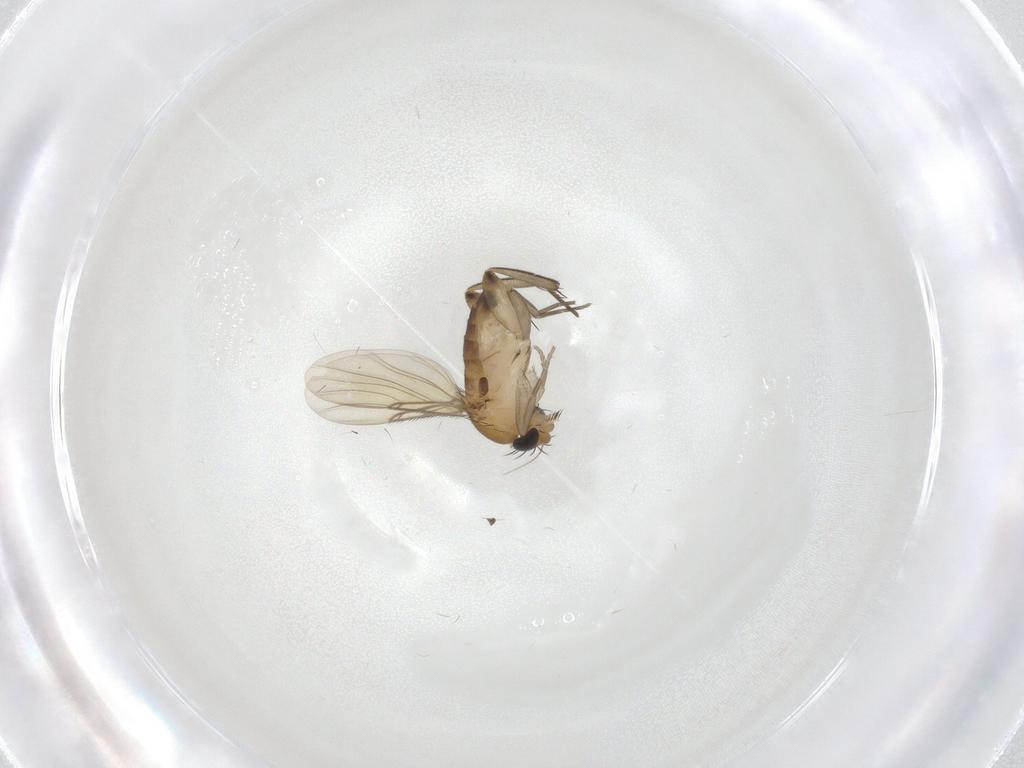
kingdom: Animalia
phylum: Arthropoda
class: Insecta
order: Diptera
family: Phoridae
